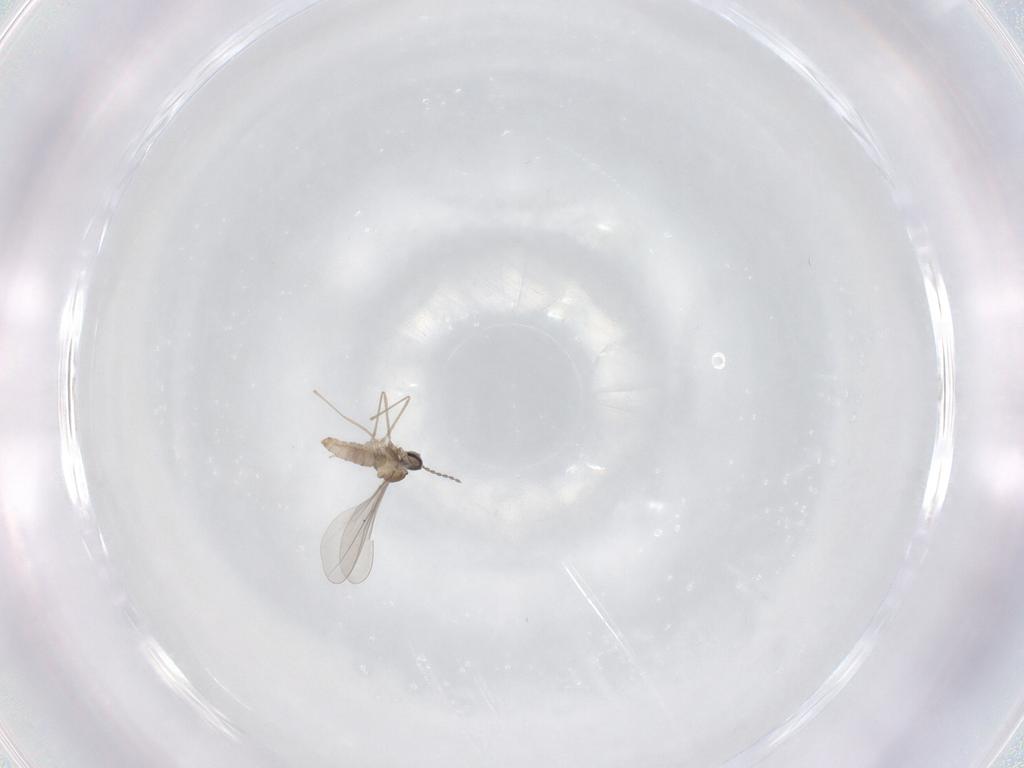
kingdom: Animalia
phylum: Arthropoda
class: Insecta
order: Diptera
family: Cecidomyiidae
